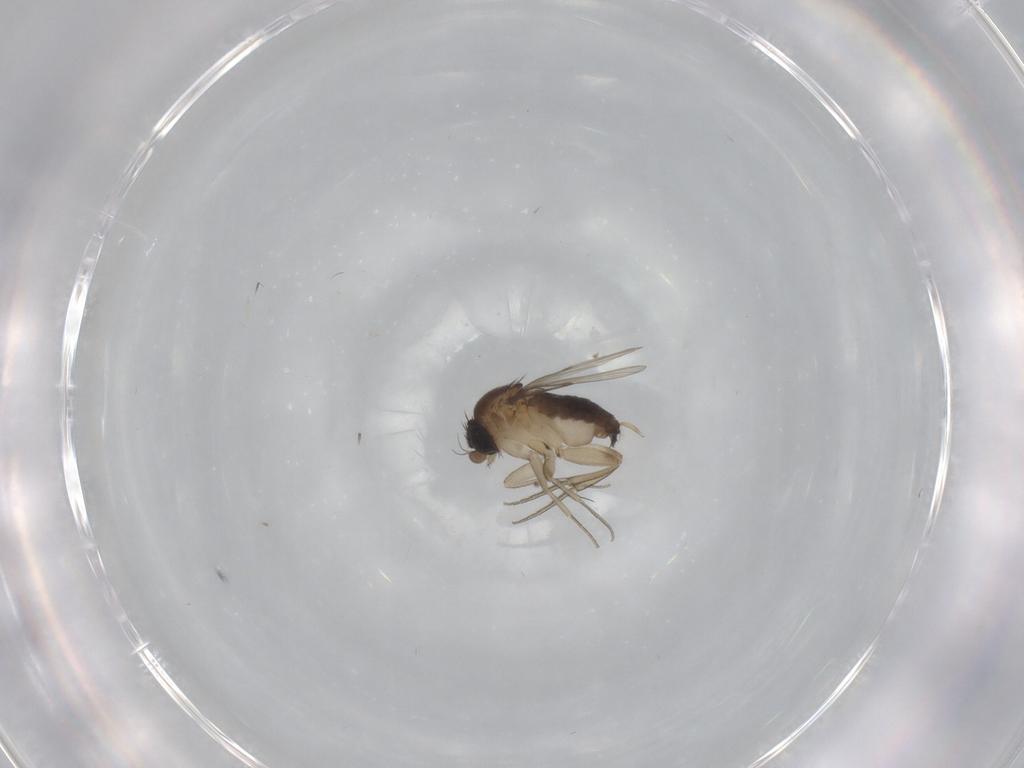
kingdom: Animalia
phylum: Arthropoda
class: Insecta
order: Diptera
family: Phoridae
